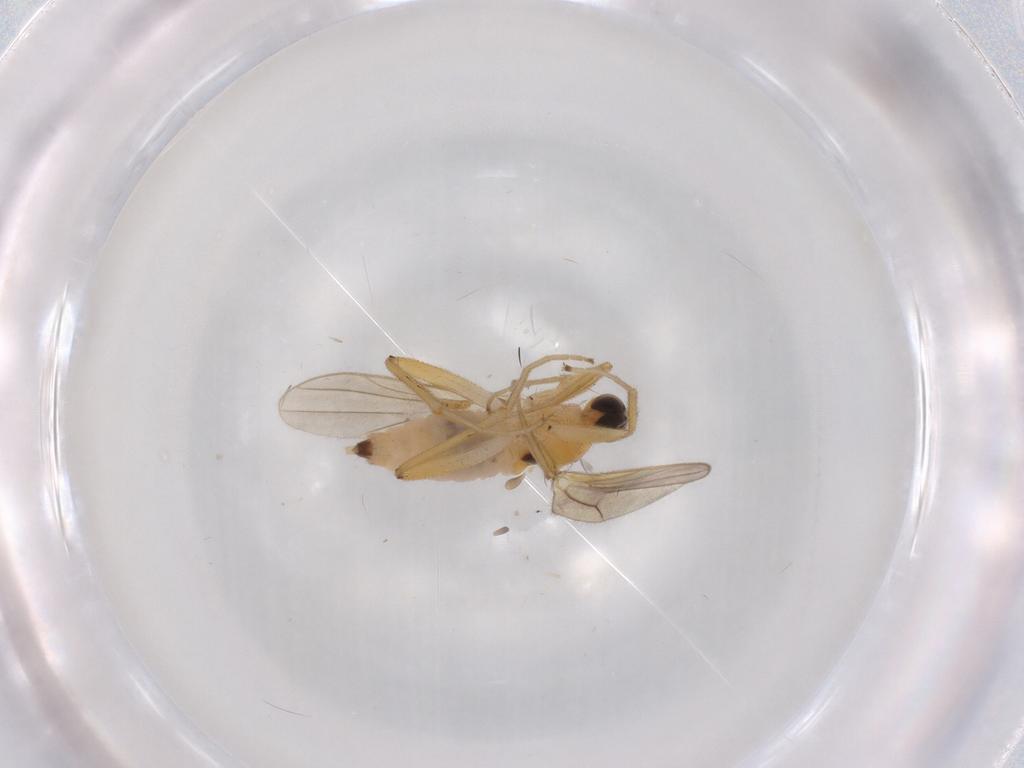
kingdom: Animalia
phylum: Arthropoda
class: Insecta
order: Diptera
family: Hybotidae
